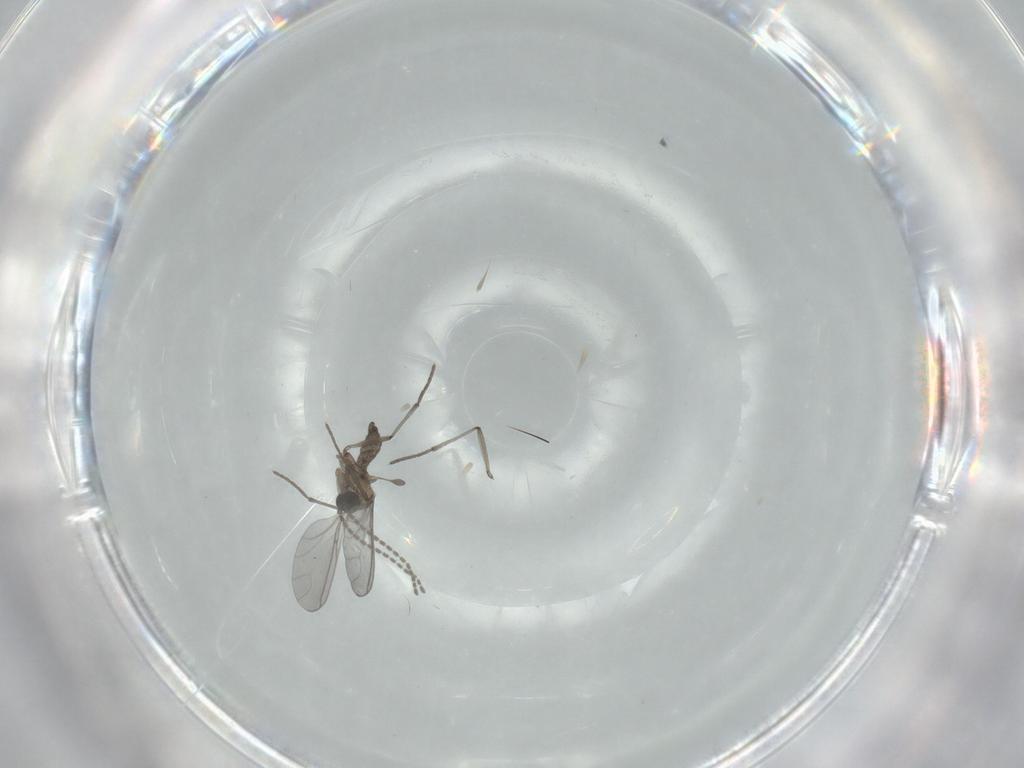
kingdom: Animalia
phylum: Arthropoda
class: Insecta
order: Diptera
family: Sciaridae
